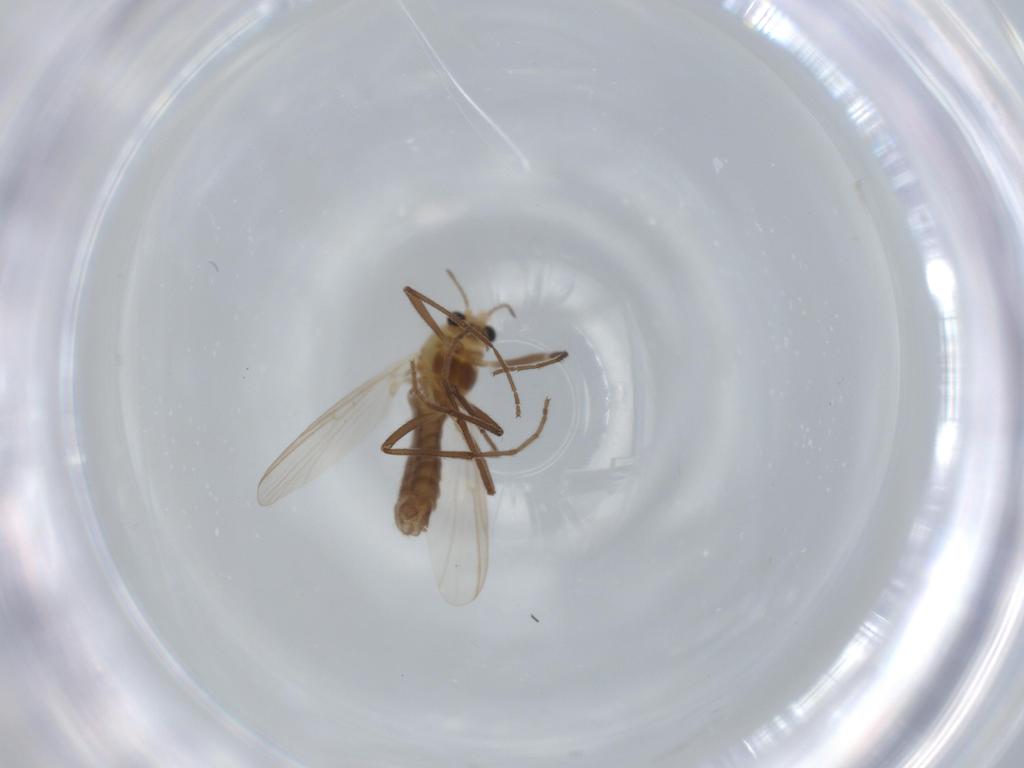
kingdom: Animalia
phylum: Arthropoda
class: Insecta
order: Diptera
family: Chironomidae
